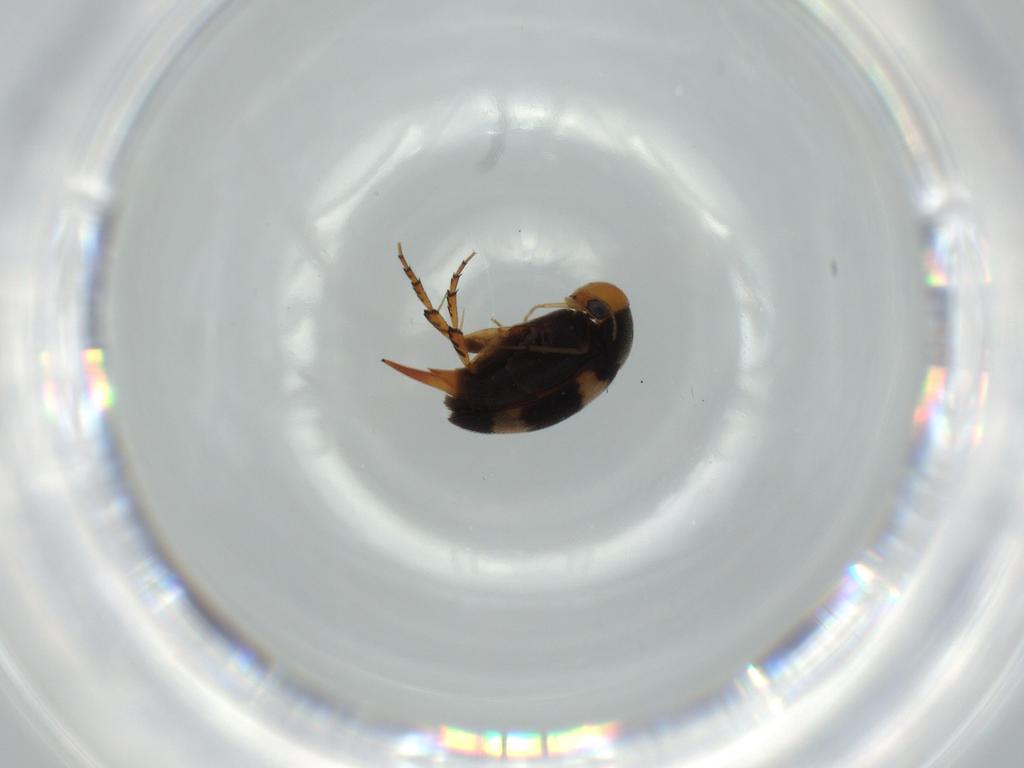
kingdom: Animalia
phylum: Arthropoda
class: Insecta
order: Coleoptera
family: Mordellidae
